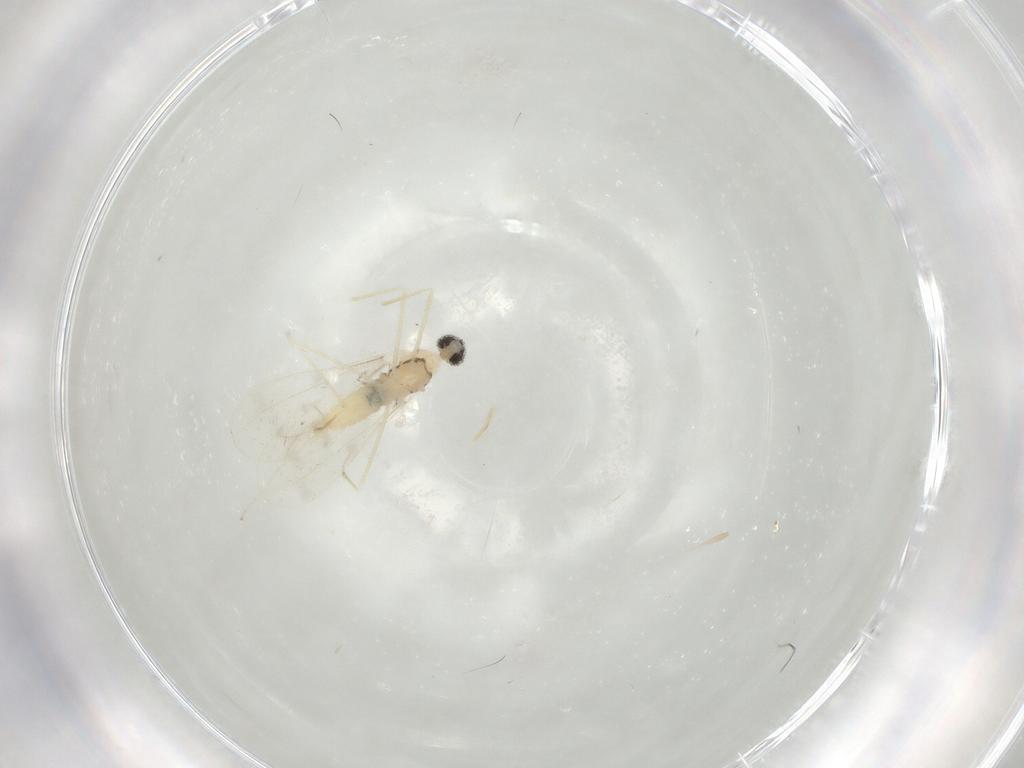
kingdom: Animalia
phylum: Arthropoda
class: Insecta
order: Diptera
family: Cecidomyiidae
